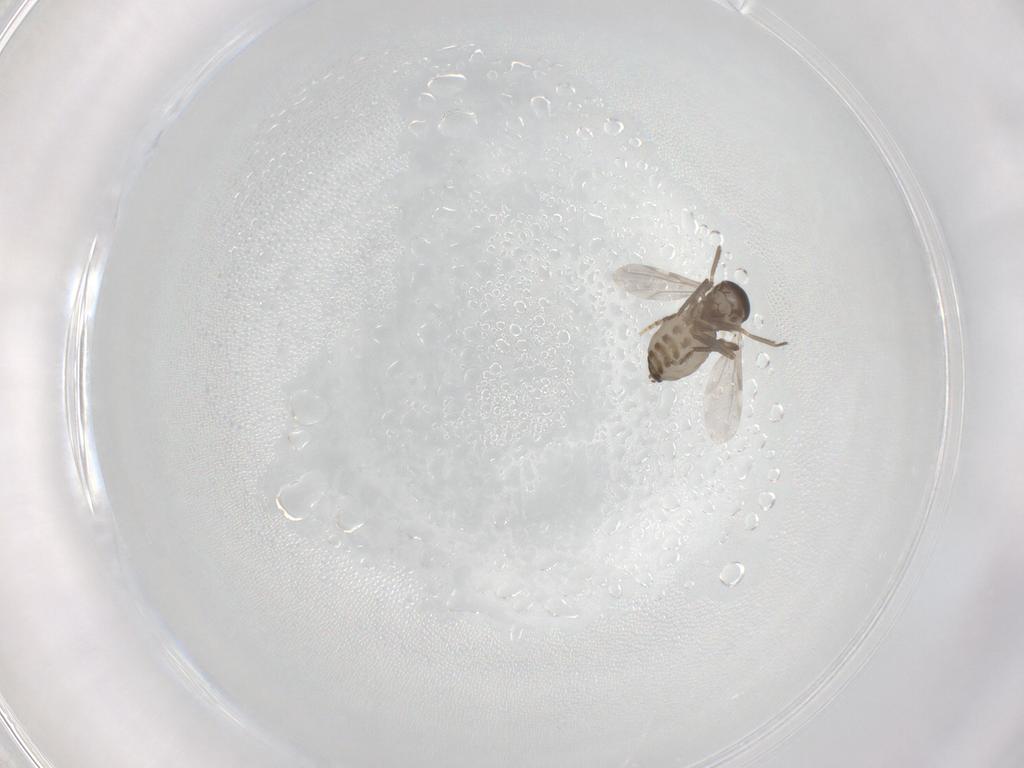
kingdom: Animalia
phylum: Arthropoda
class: Insecta
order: Diptera
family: Ceratopogonidae
